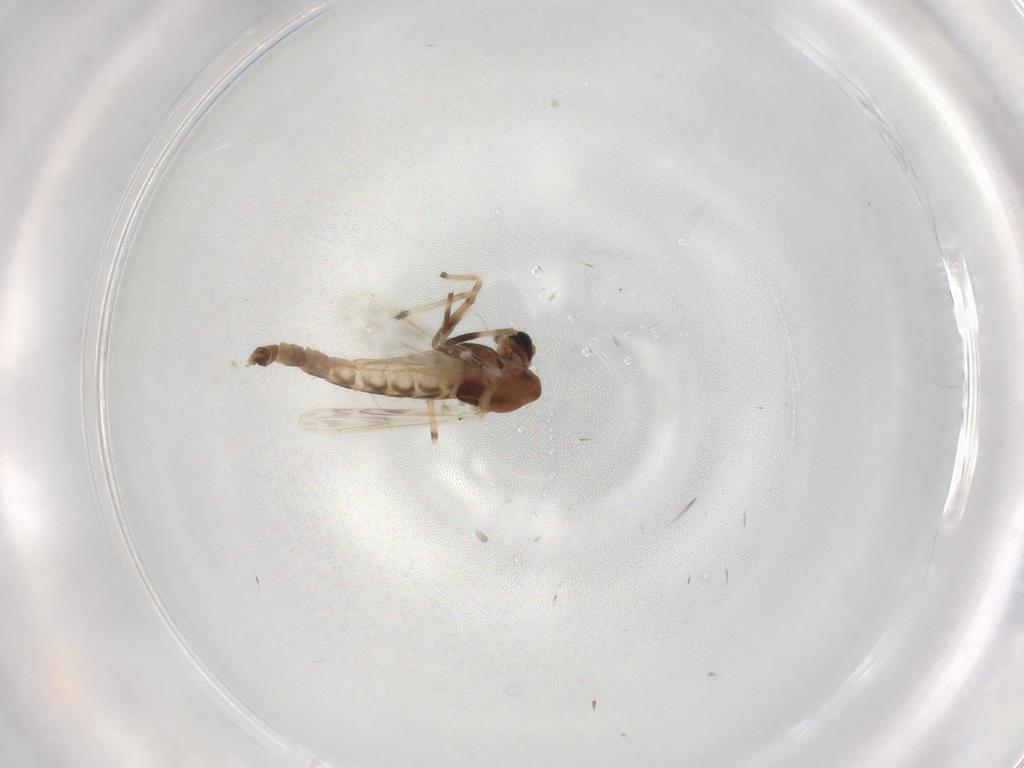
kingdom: Animalia
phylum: Arthropoda
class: Insecta
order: Diptera
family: Chironomidae
